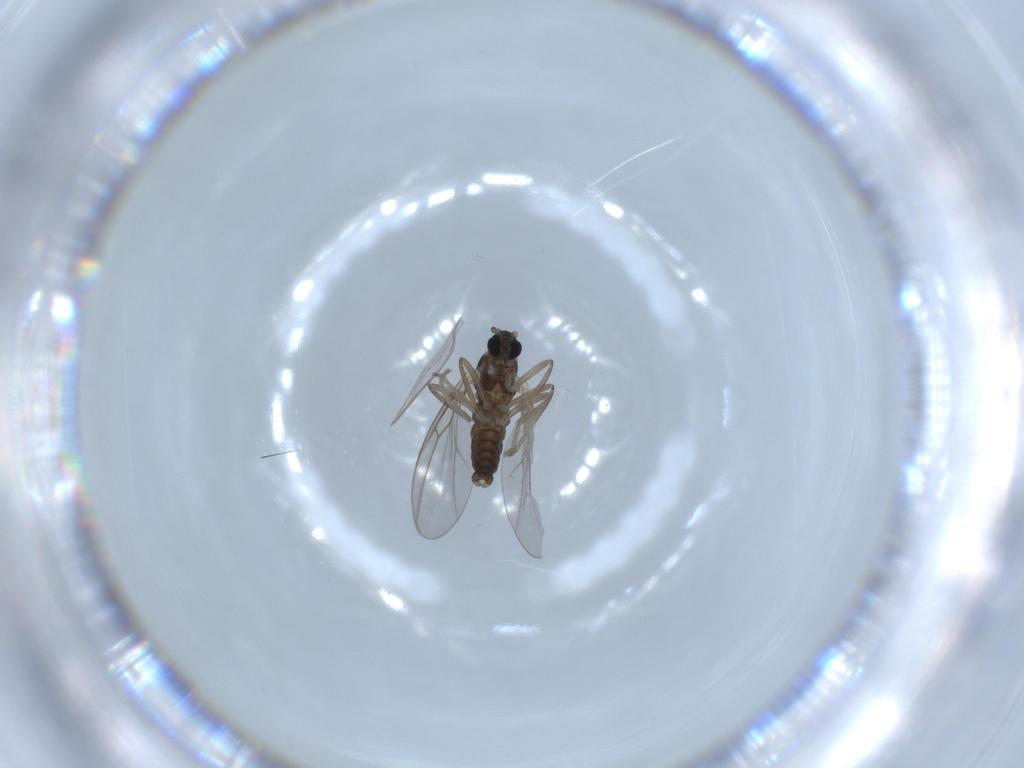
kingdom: Animalia
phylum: Arthropoda
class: Insecta
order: Diptera
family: Cecidomyiidae
